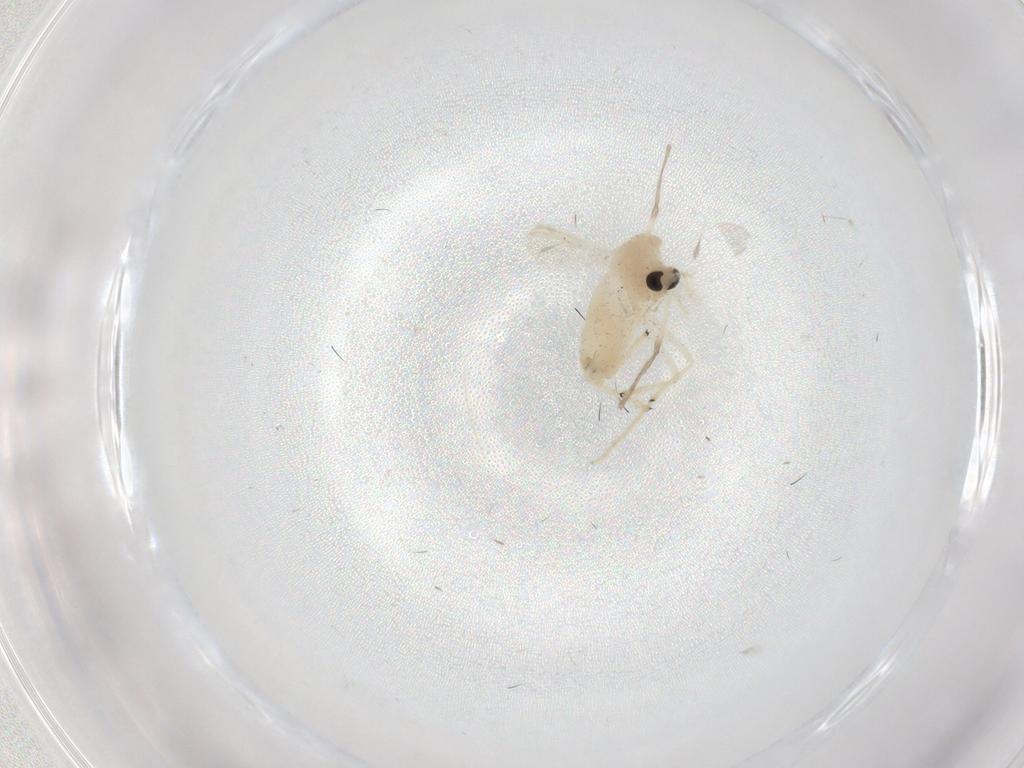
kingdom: Animalia
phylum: Arthropoda
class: Insecta
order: Diptera
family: Chironomidae
